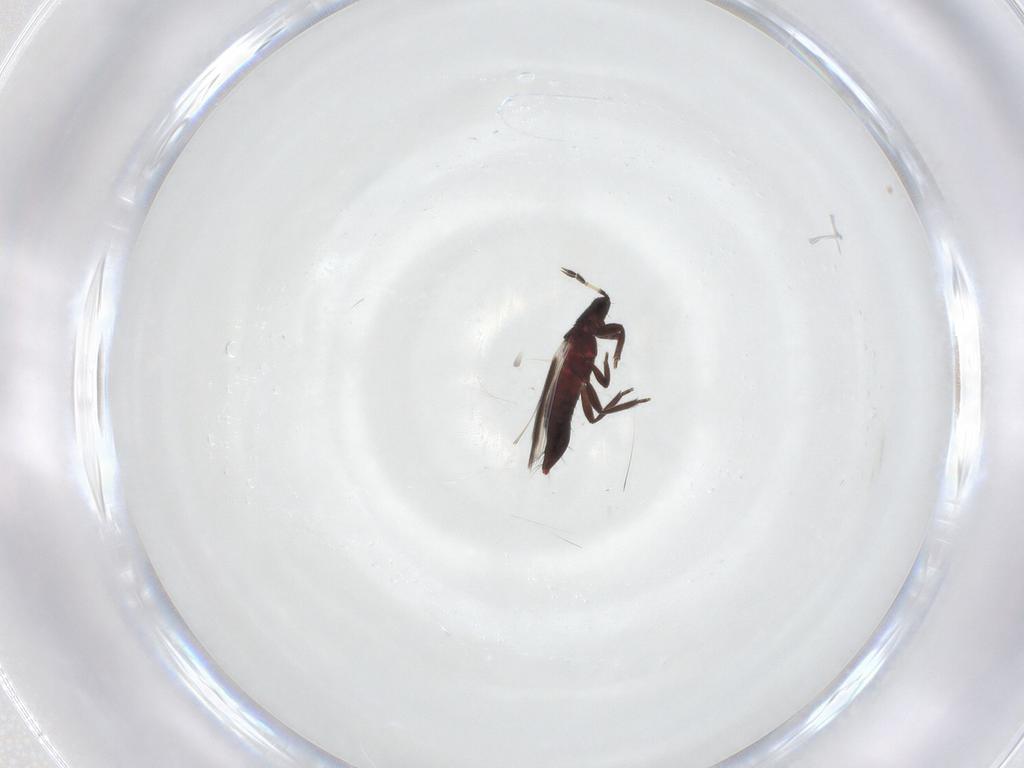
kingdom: Animalia
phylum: Arthropoda
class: Insecta
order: Thysanoptera
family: Aeolothripidae
